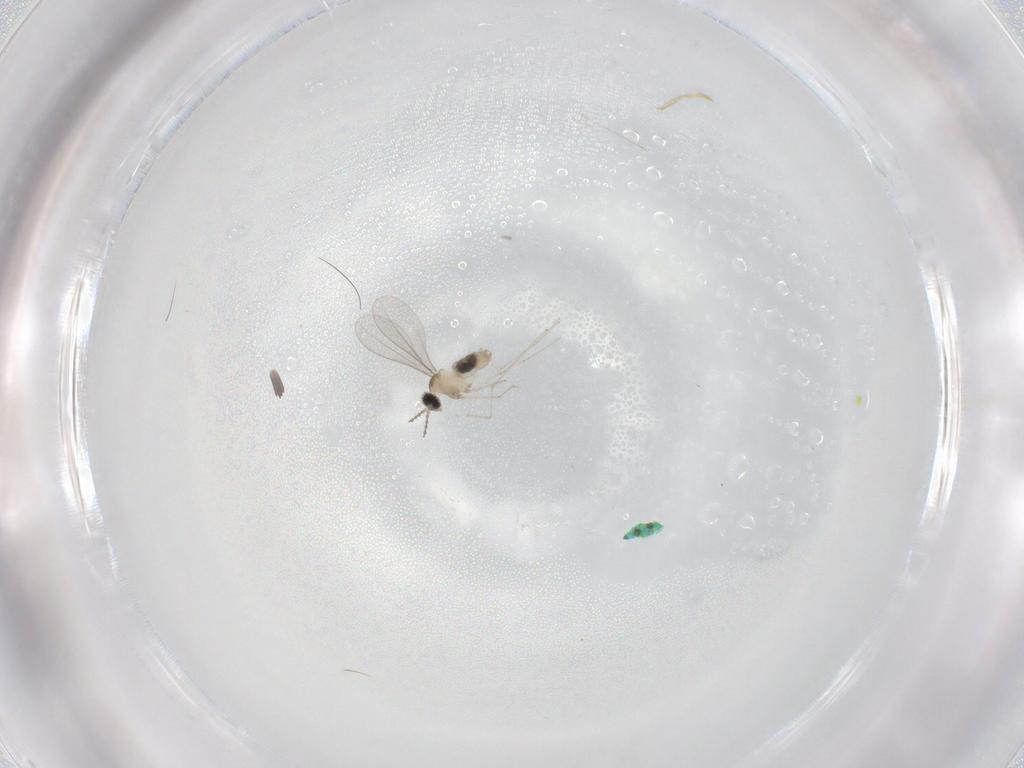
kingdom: Animalia
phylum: Arthropoda
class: Insecta
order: Diptera
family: Cecidomyiidae
